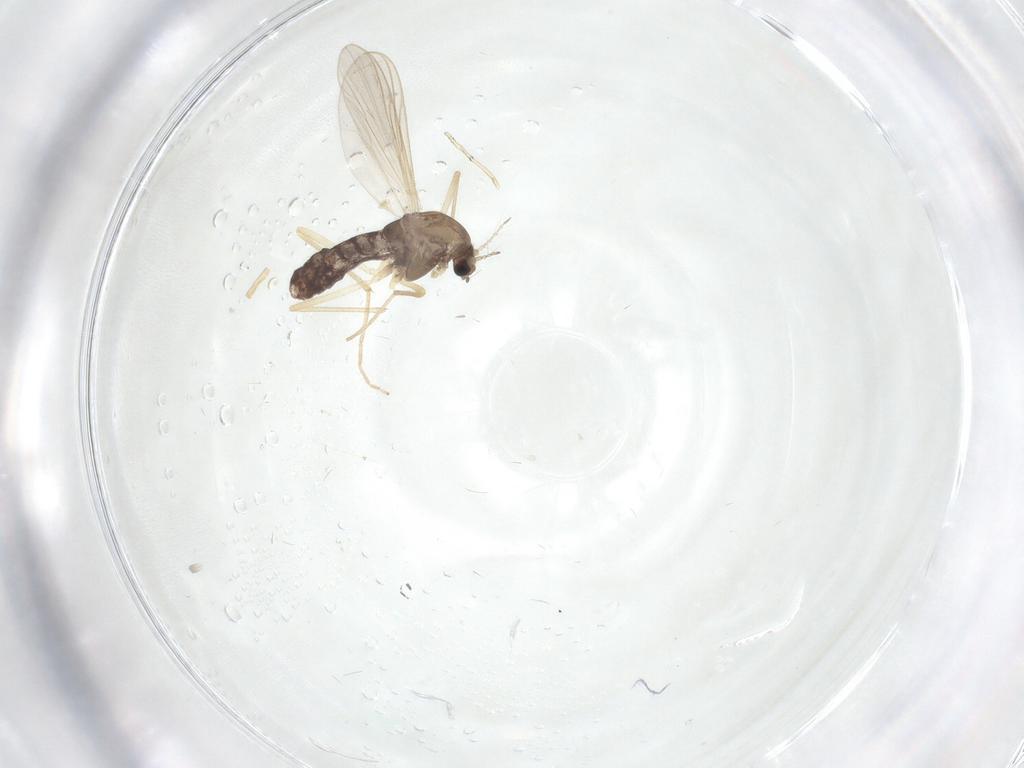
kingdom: Animalia
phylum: Arthropoda
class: Insecta
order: Diptera
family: Chironomidae
